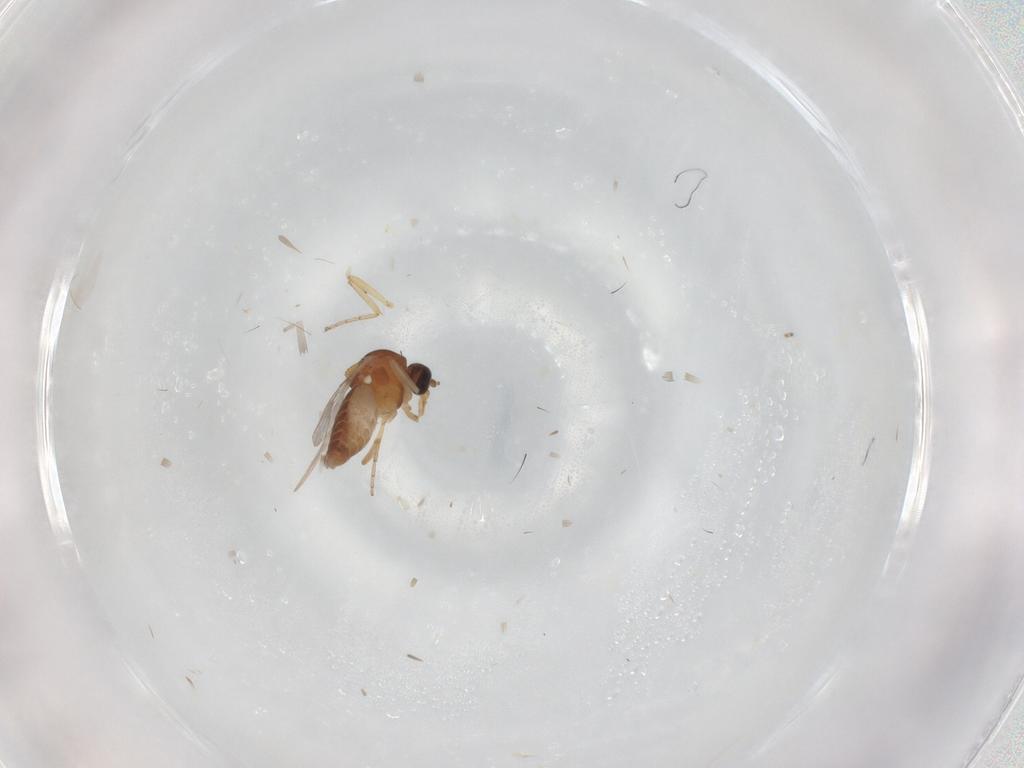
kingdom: Animalia
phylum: Arthropoda
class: Insecta
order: Diptera
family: Ceratopogonidae
